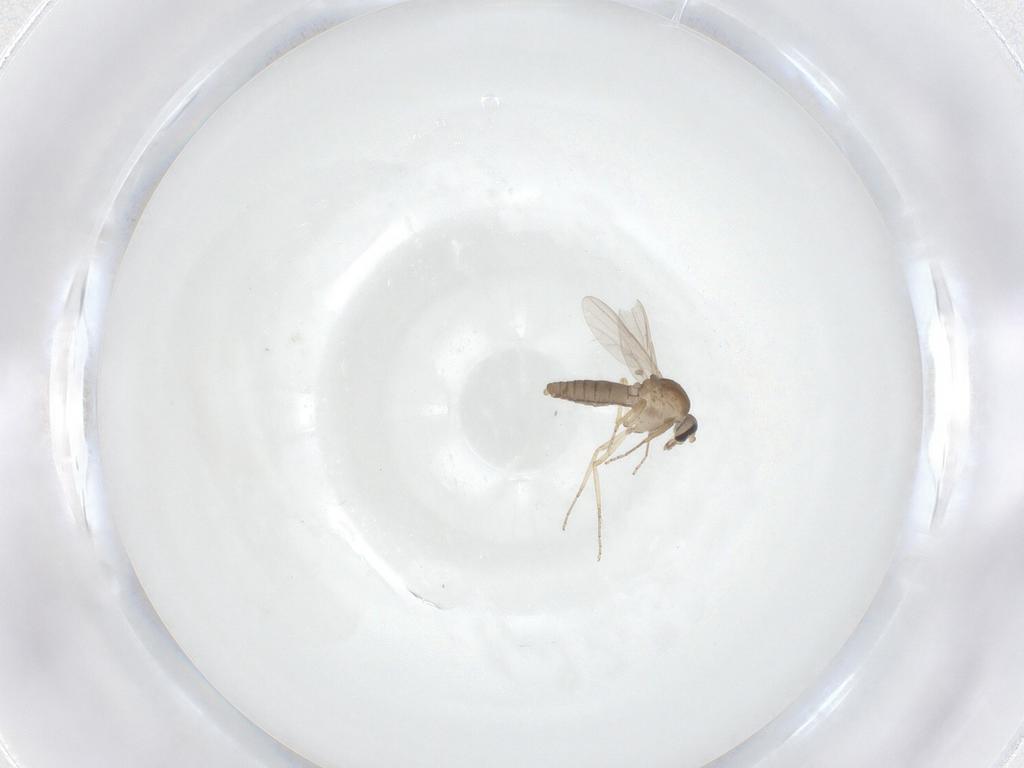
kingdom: Animalia
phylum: Arthropoda
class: Insecta
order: Diptera
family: Ceratopogonidae
